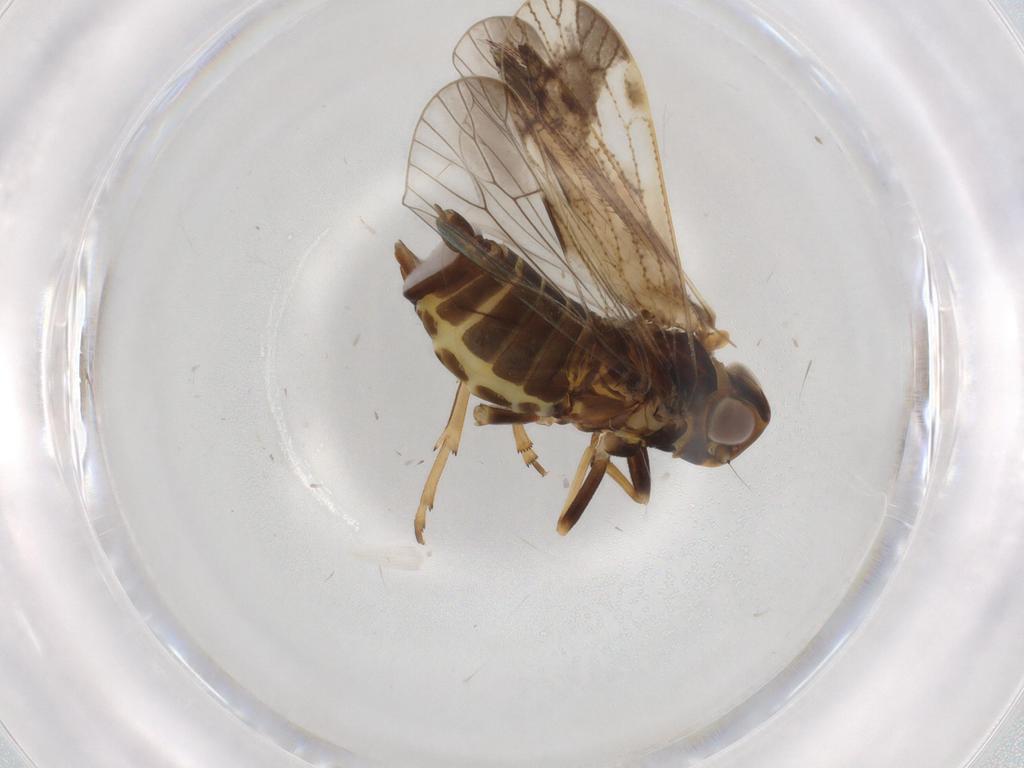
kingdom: Animalia
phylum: Arthropoda
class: Insecta
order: Hemiptera
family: Cixiidae
